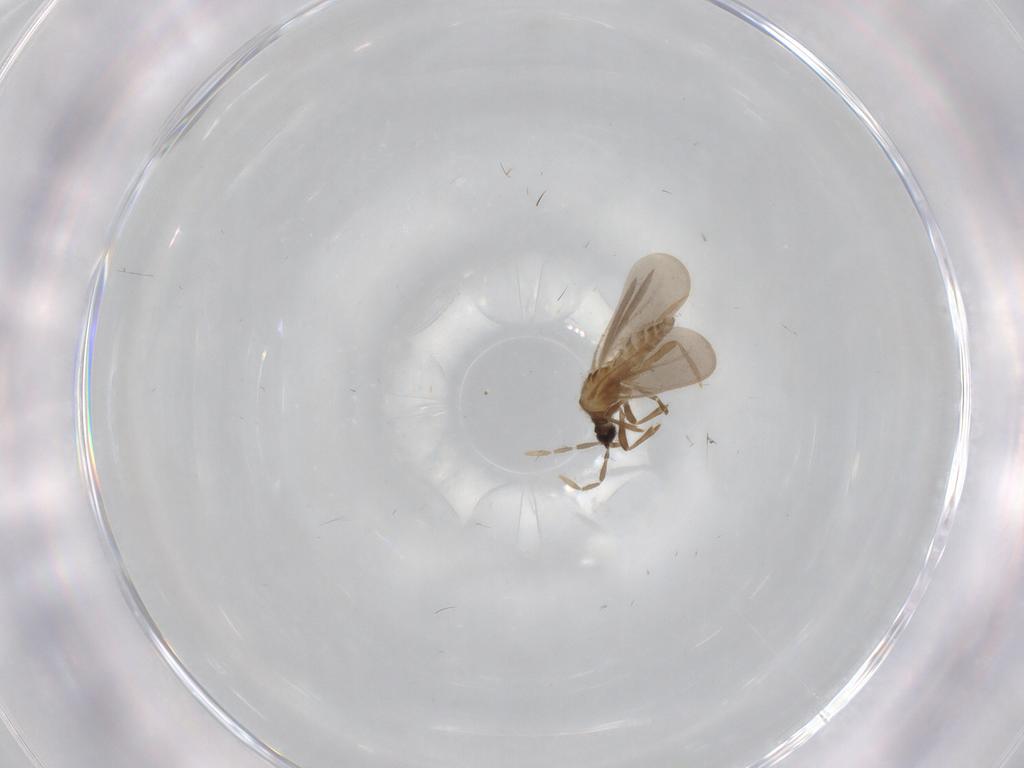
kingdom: Animalia
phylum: Arthropoda
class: Insecta
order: Hemiptera
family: Enicocephalidae
